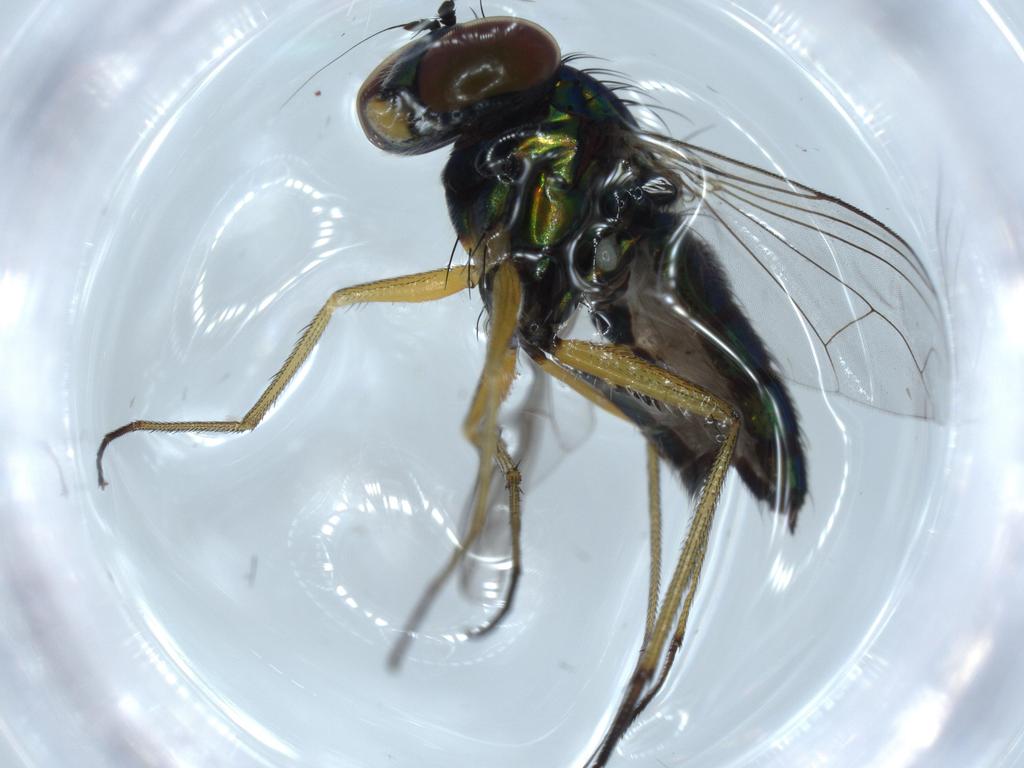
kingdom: Animalia
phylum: Arthropoda
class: Insecta
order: Diptera
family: Dolichopodidae
